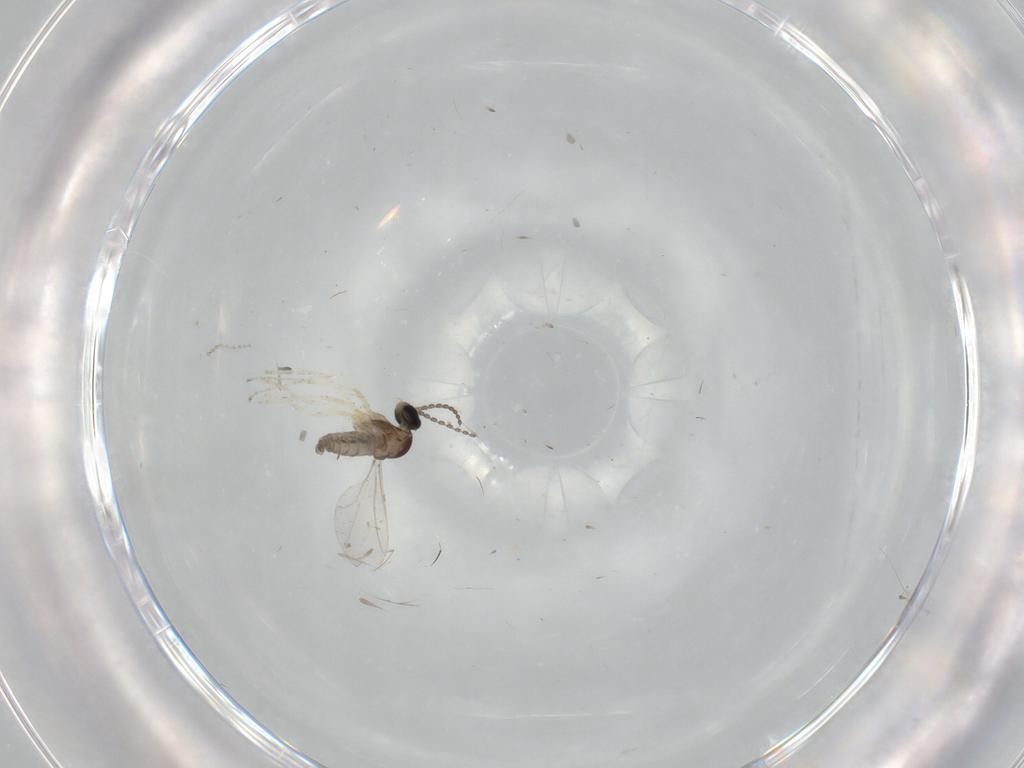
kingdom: Animalia
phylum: Arthropoda
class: Insecta
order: Diptera
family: Cecidomyiidae
